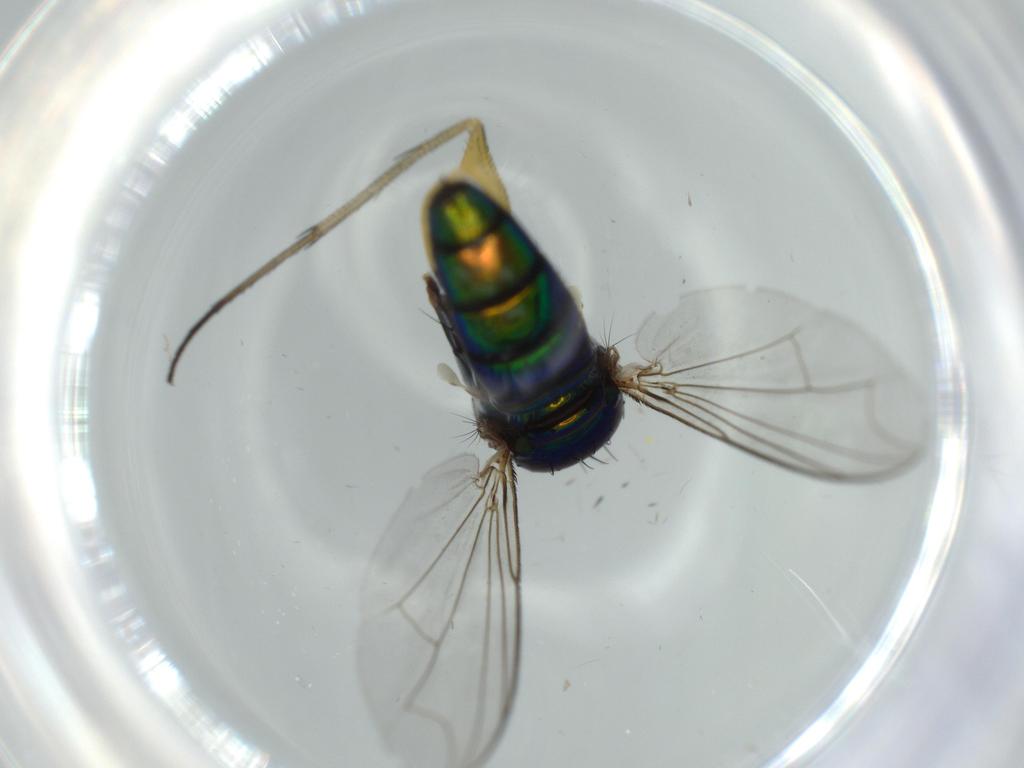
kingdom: Animalia
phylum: Arthropoda
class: Insecta
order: Diptera
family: Dolichopodidae
